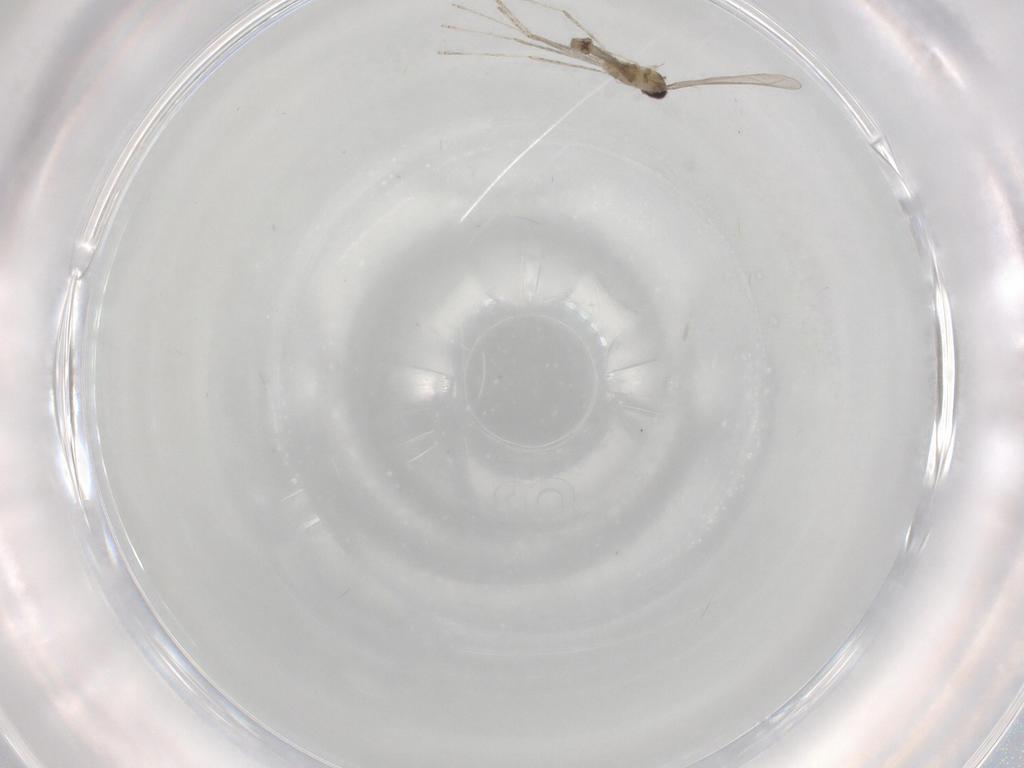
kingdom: Animalia
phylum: Arthropoda
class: Insecta
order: Diptera
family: Cecidomyiidae
